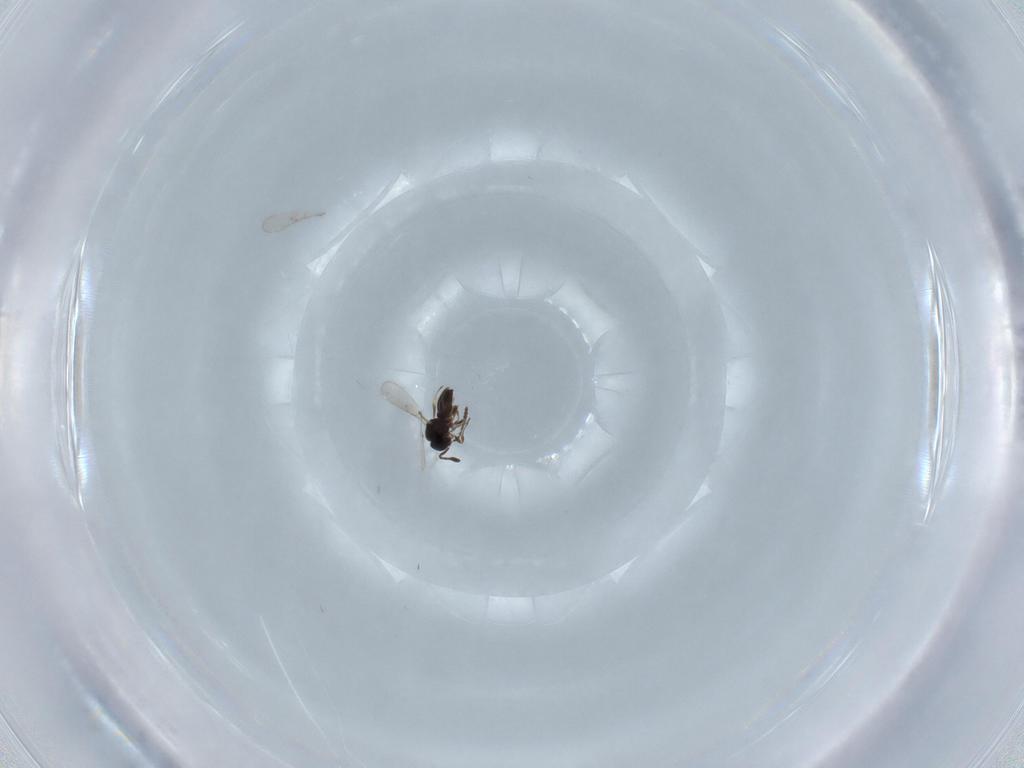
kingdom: Animalia
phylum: Arthropoda
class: Insecta
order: Hymenoptera
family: Scelionidae
